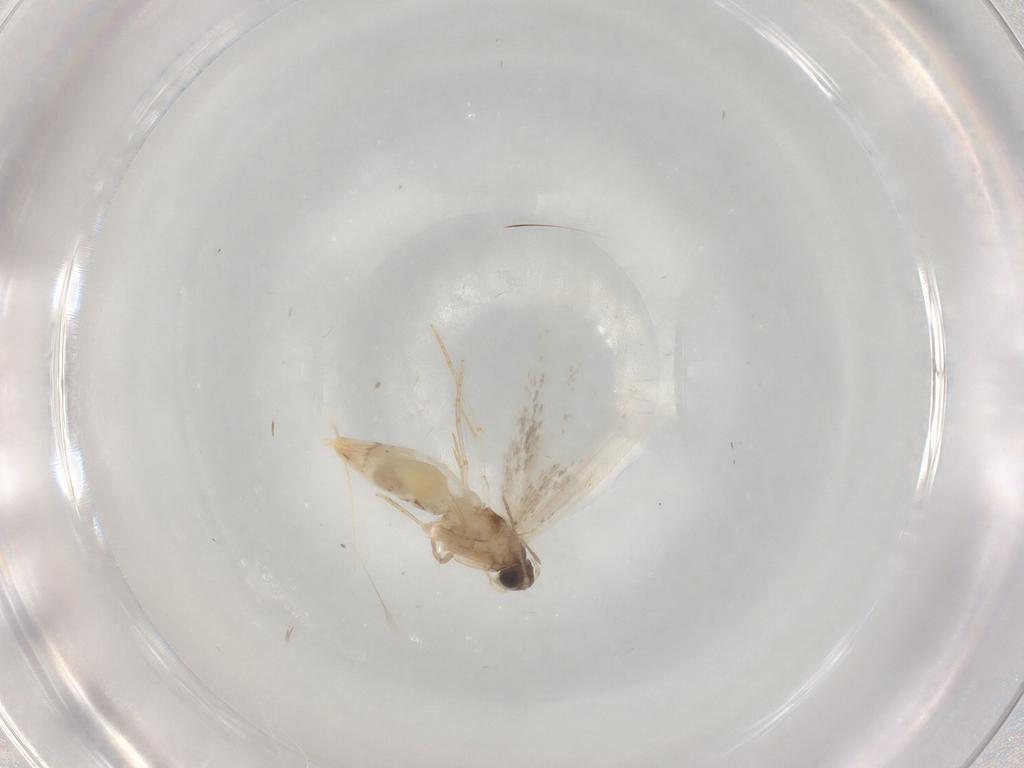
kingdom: Animalia
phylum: Arthropoda
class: Insecta
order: Lepidoptera
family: Tineidae
